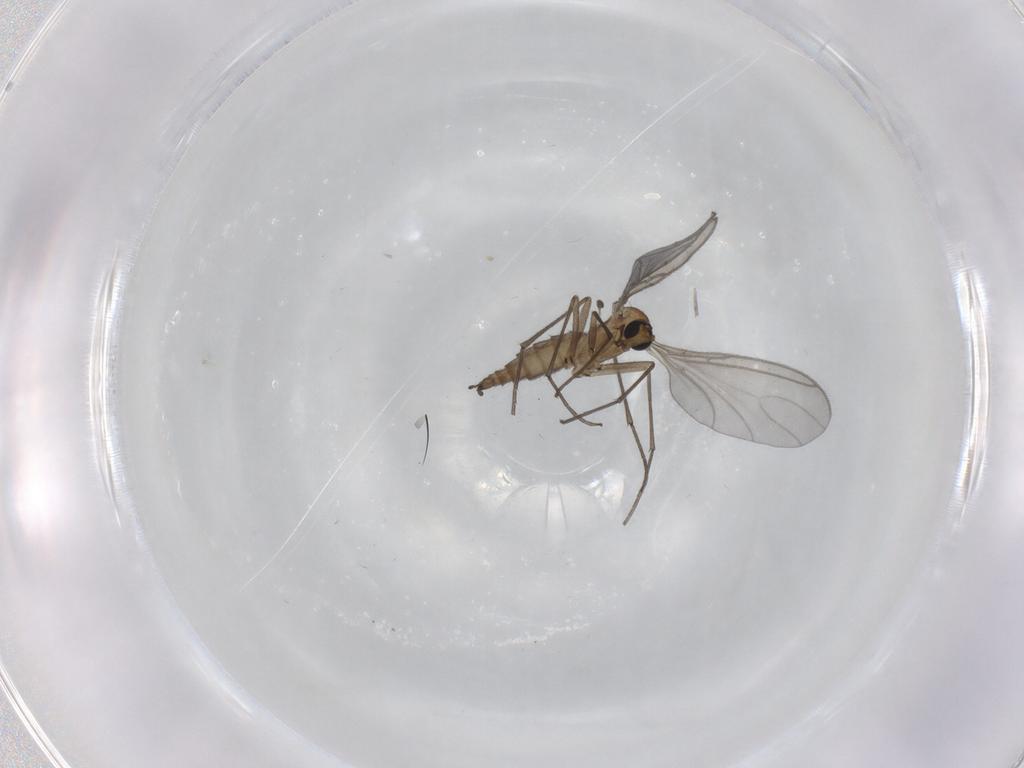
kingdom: Animalia
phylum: Arthropoda
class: Insecta
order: Diptera
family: Sciaridae
